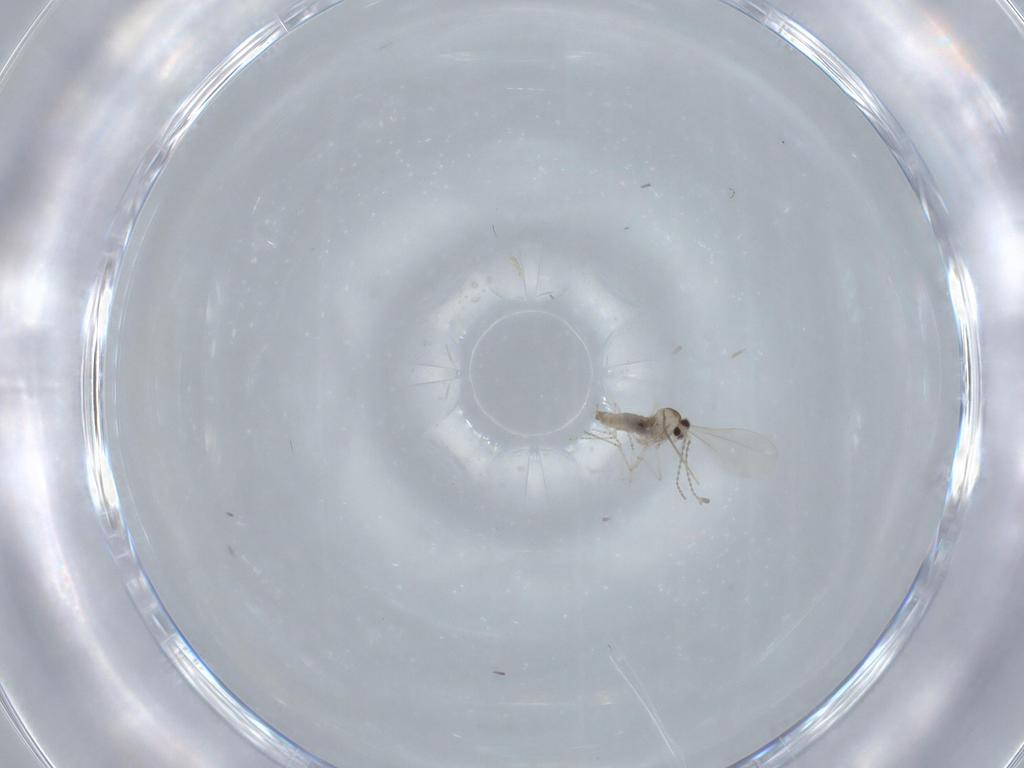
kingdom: Animalia
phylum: Arthropoda
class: Insecta
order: Diptera
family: Cecidomyiidae
